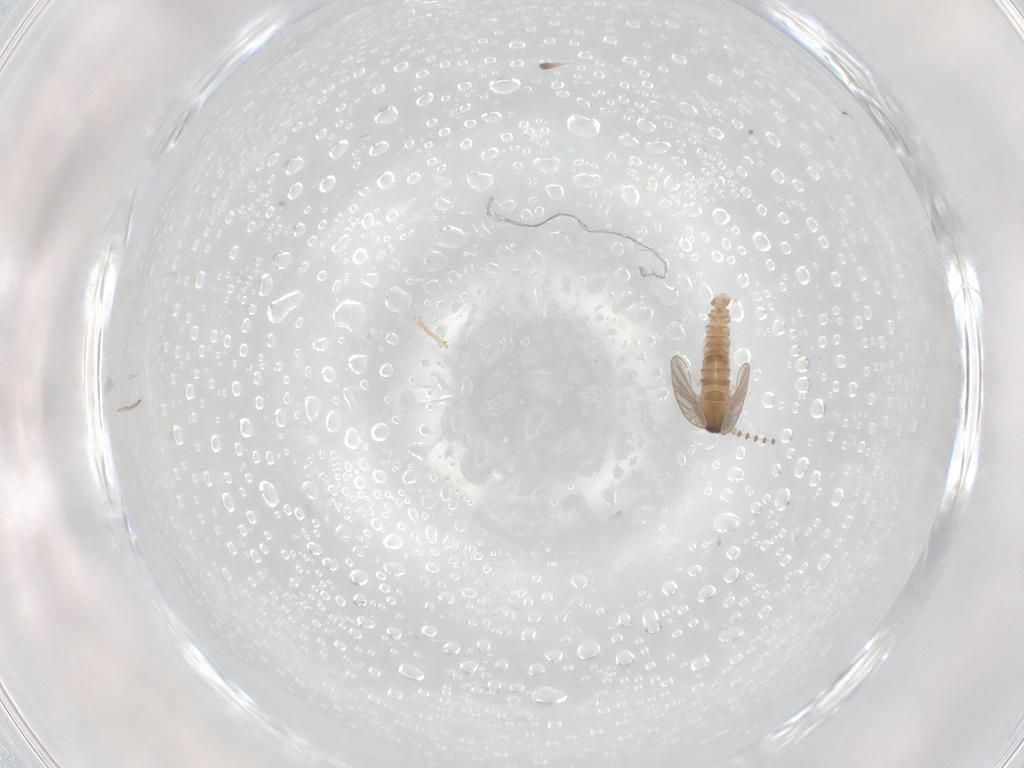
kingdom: Animalia
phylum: Arthropoda
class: Insecta
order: Diptera
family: Psychodidae
